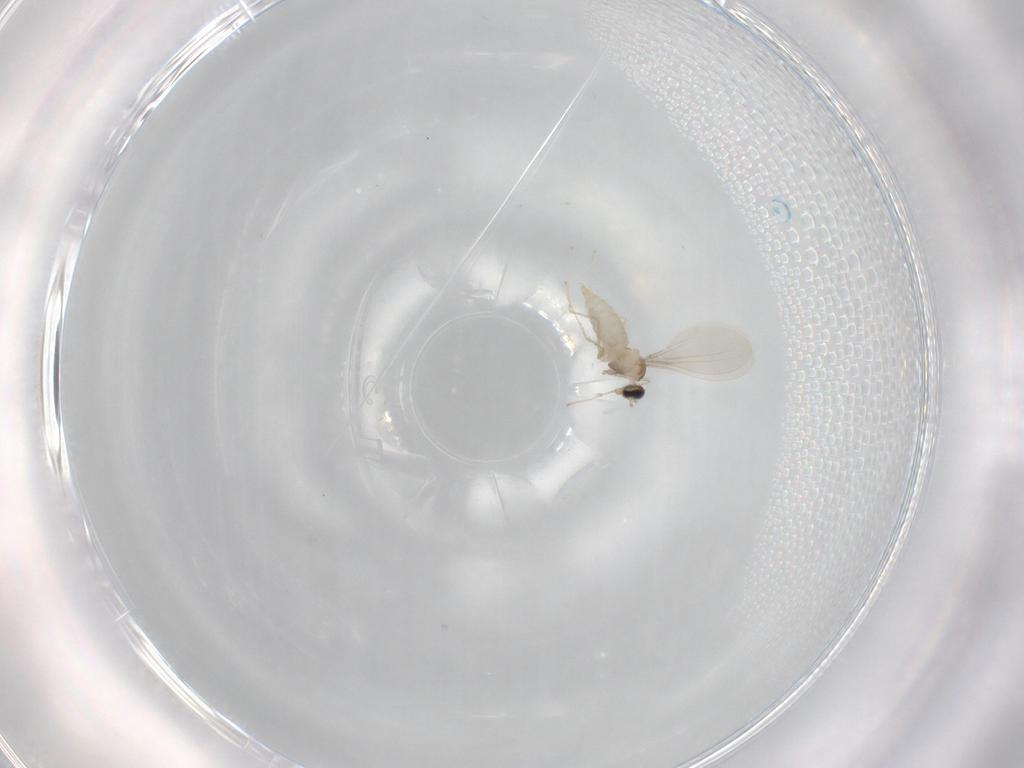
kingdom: Animalia
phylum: Arthropoda
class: Insecta
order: Diptera
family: Cecidomyiidae
